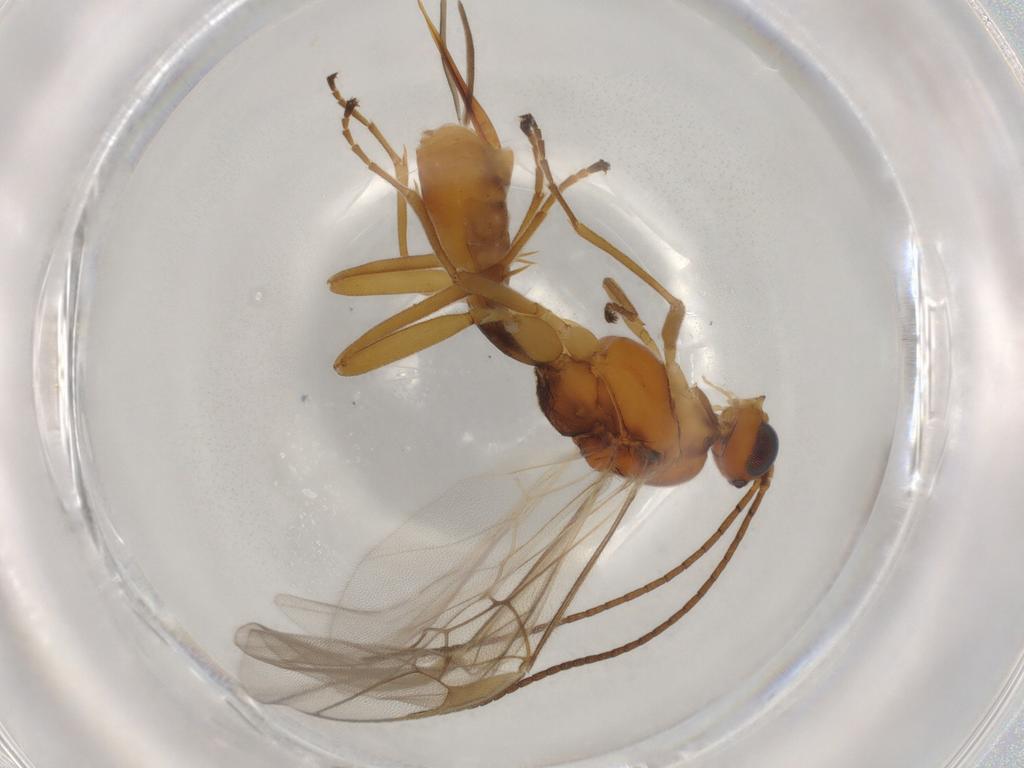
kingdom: Animalia
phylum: Arthropoda
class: Insecta
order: Hymenoptera
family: Braconidae
